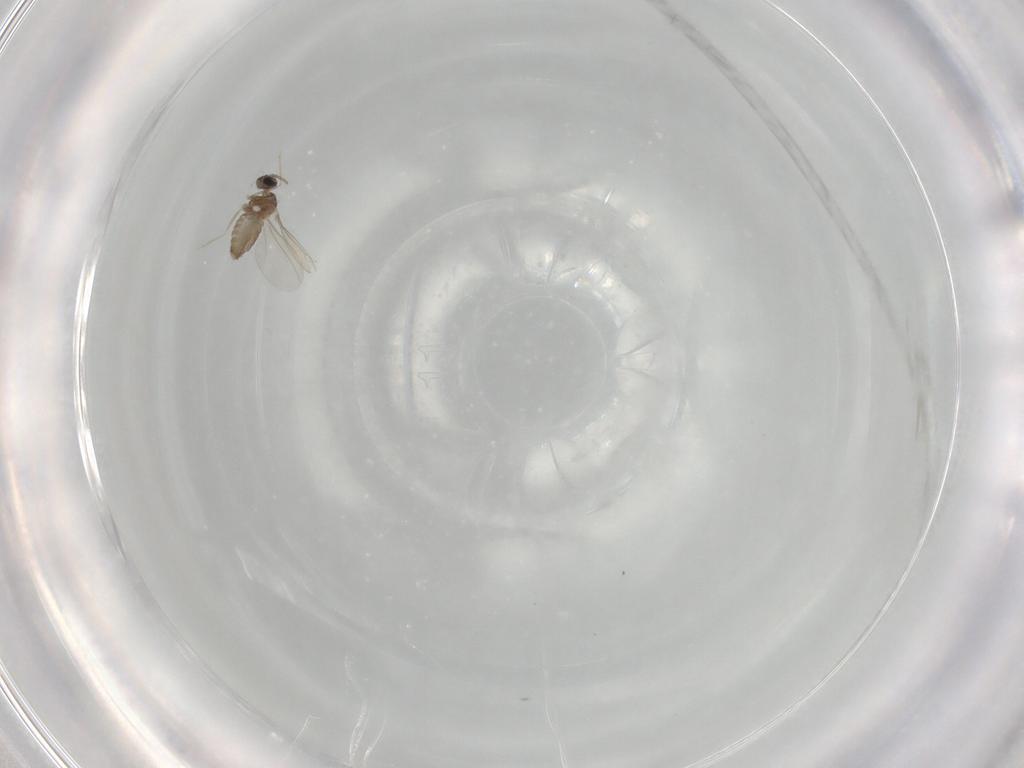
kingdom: Animalia
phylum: Arthropoda
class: Insecta
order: Diptera
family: Cecidomyiidae
